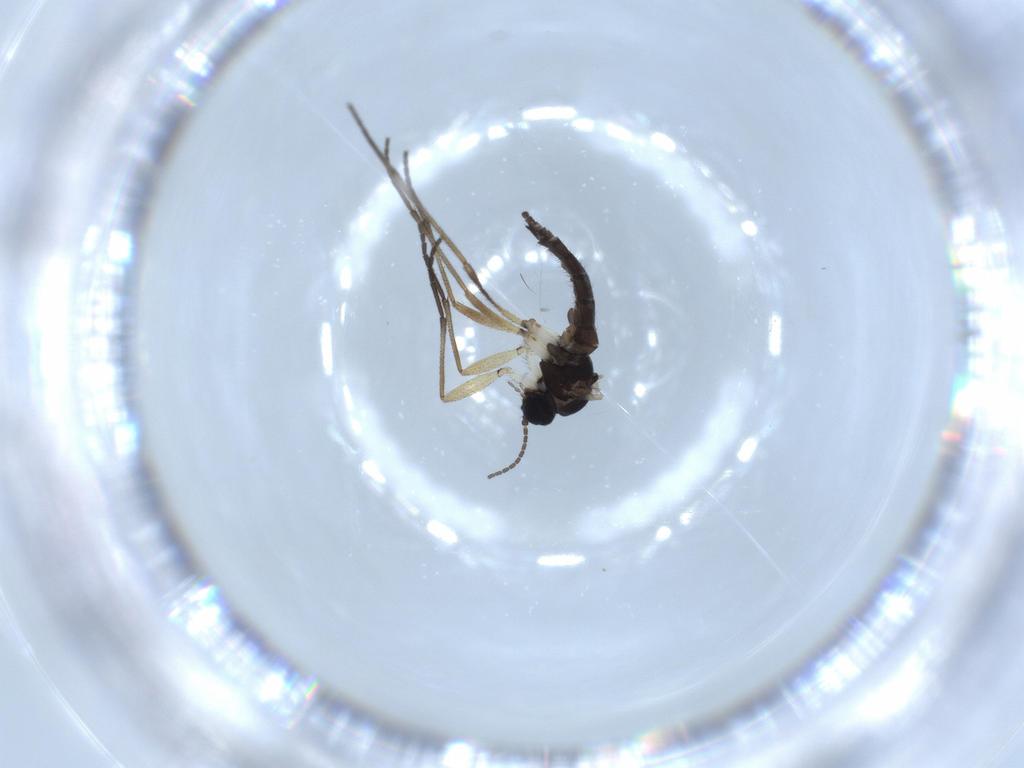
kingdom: Animalia
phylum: Arthropoda
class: Insecta
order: Diptera
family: Sciaridae
